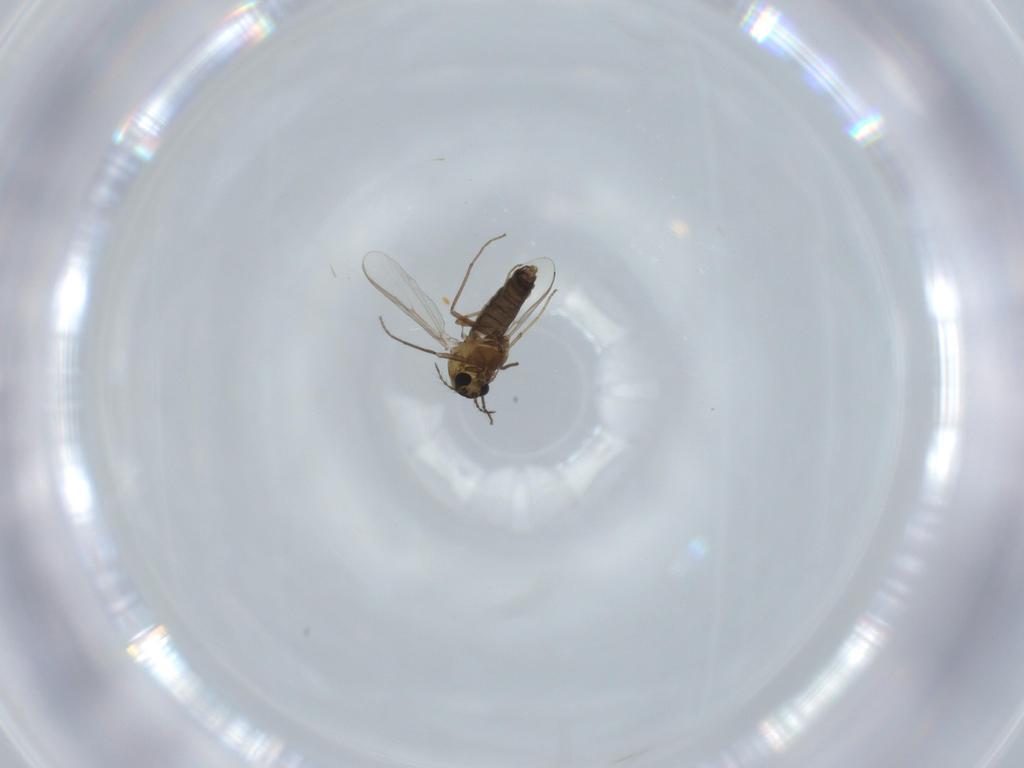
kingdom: Animalia
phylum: Arthropoda
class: Insecta
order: Diptera
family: Chironomidae
